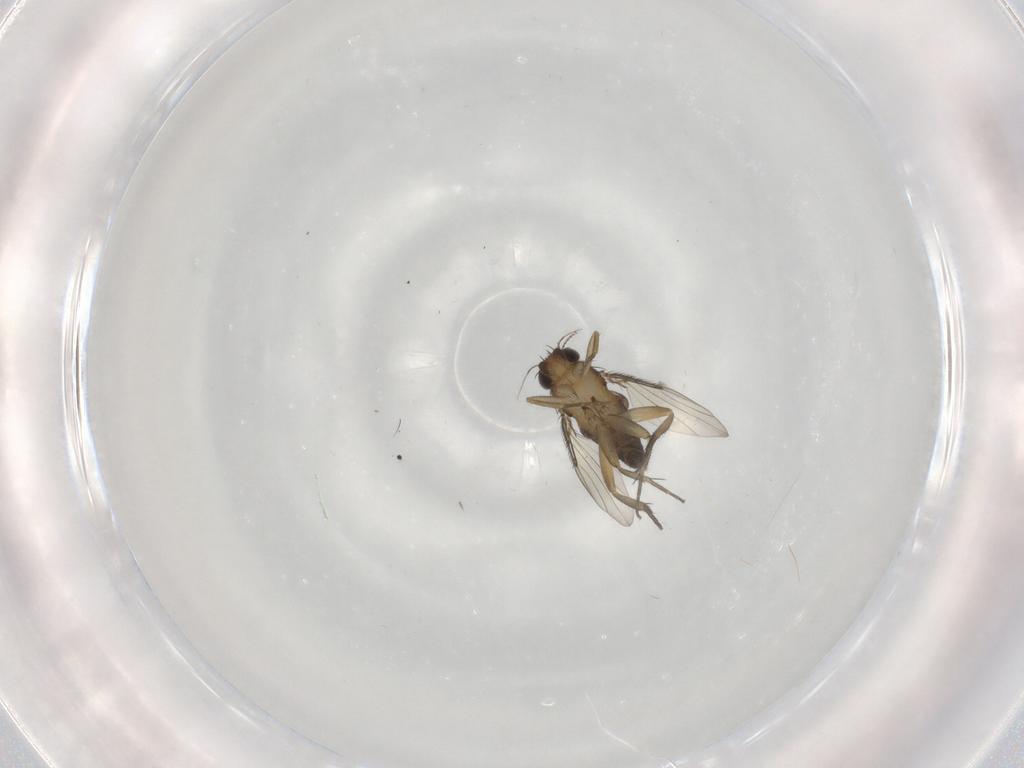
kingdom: Animalia
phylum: Arthropoda
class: Insecta
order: Diptera
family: Phoridae
